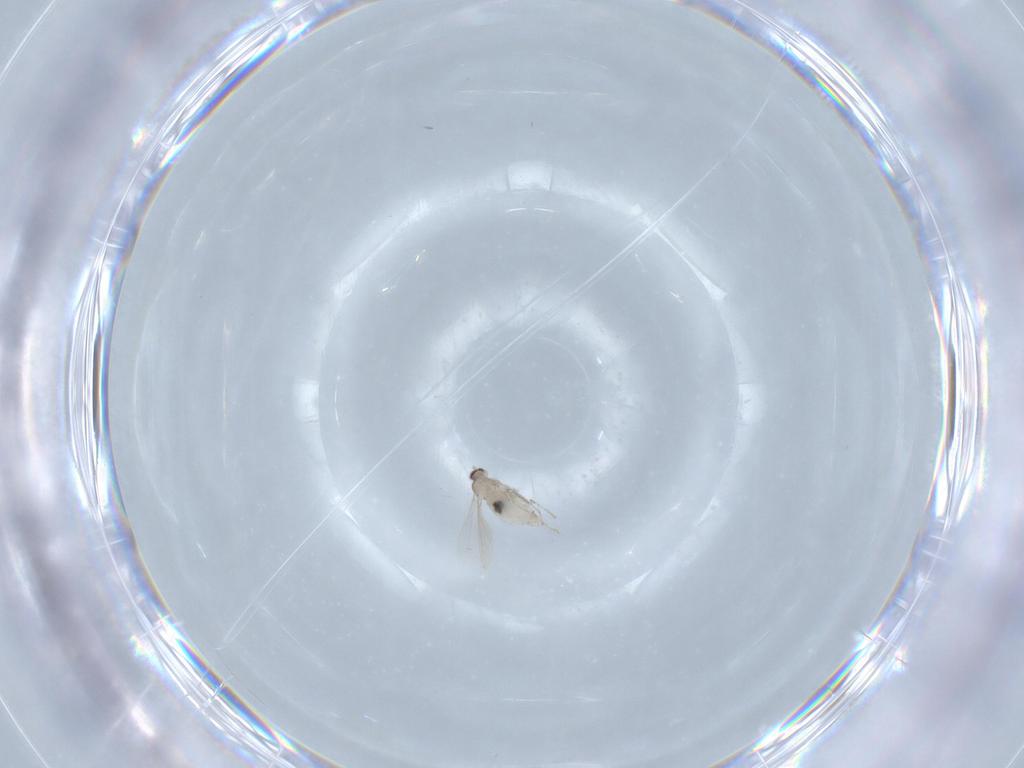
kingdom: Animalia
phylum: Arthropoda
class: Insecta
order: Diptera
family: Cecidomyiidae
